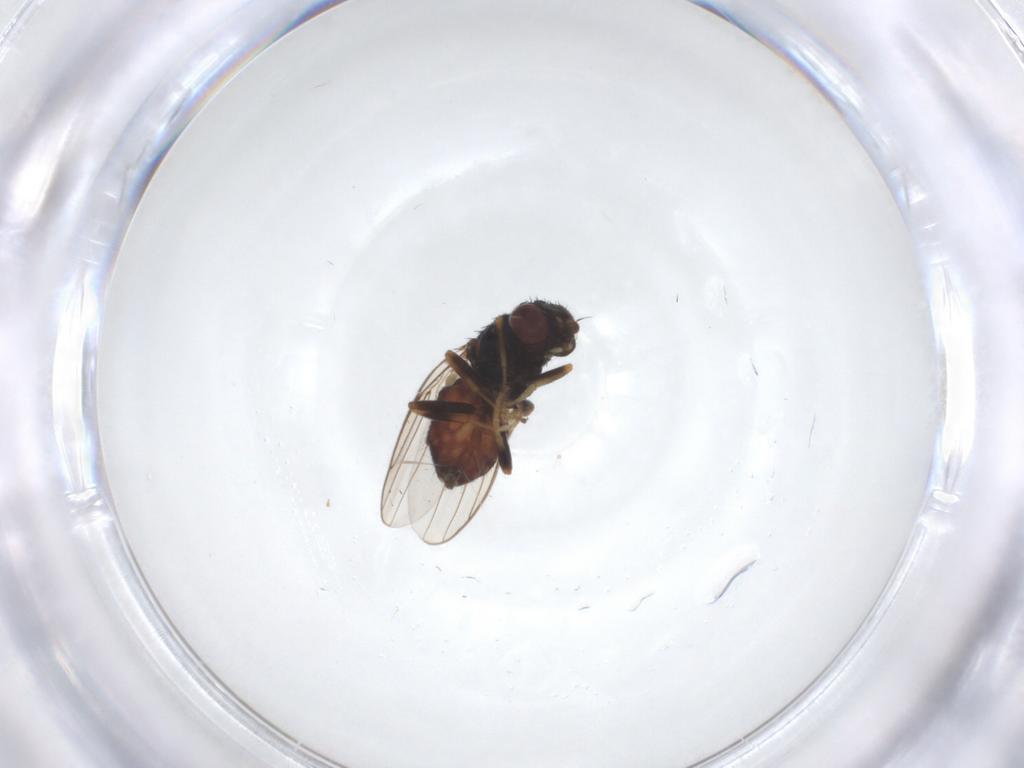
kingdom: Animalia
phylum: Arthropoda
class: Insecta
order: Diptera
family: Chloropidae
